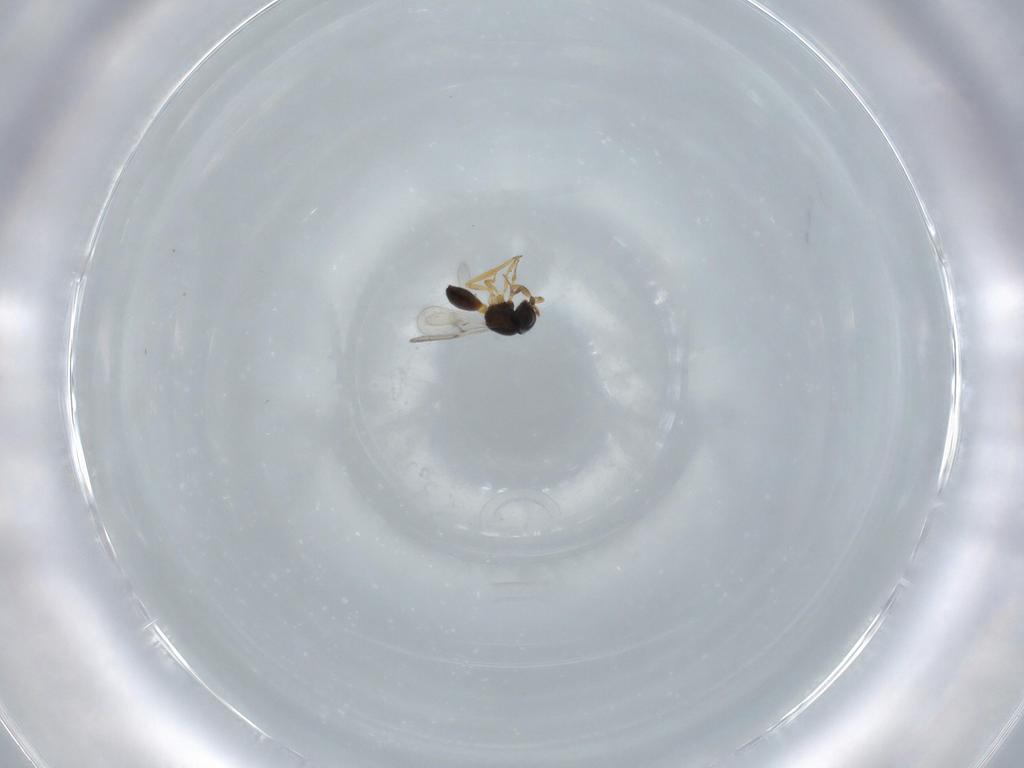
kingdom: Animalia
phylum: Arthropoda
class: Insecta
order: Hymenoptera
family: Scelionidae
